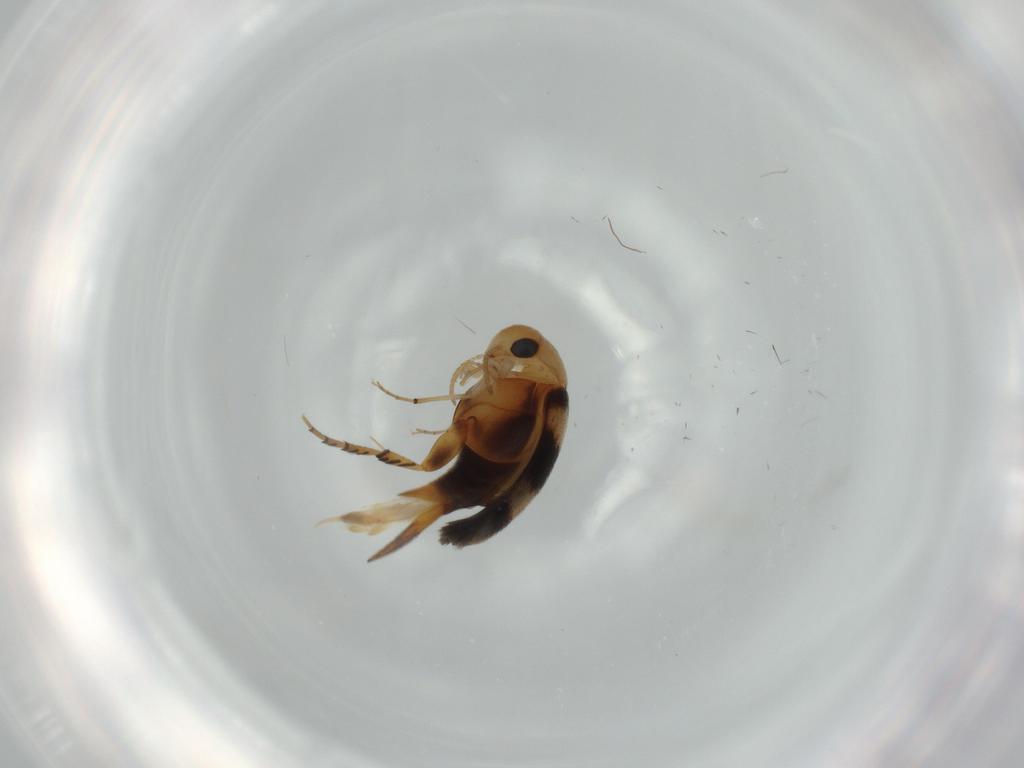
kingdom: Animalia
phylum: Arthropoda
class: Insecta
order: Coleoptera
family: Mordellidae
